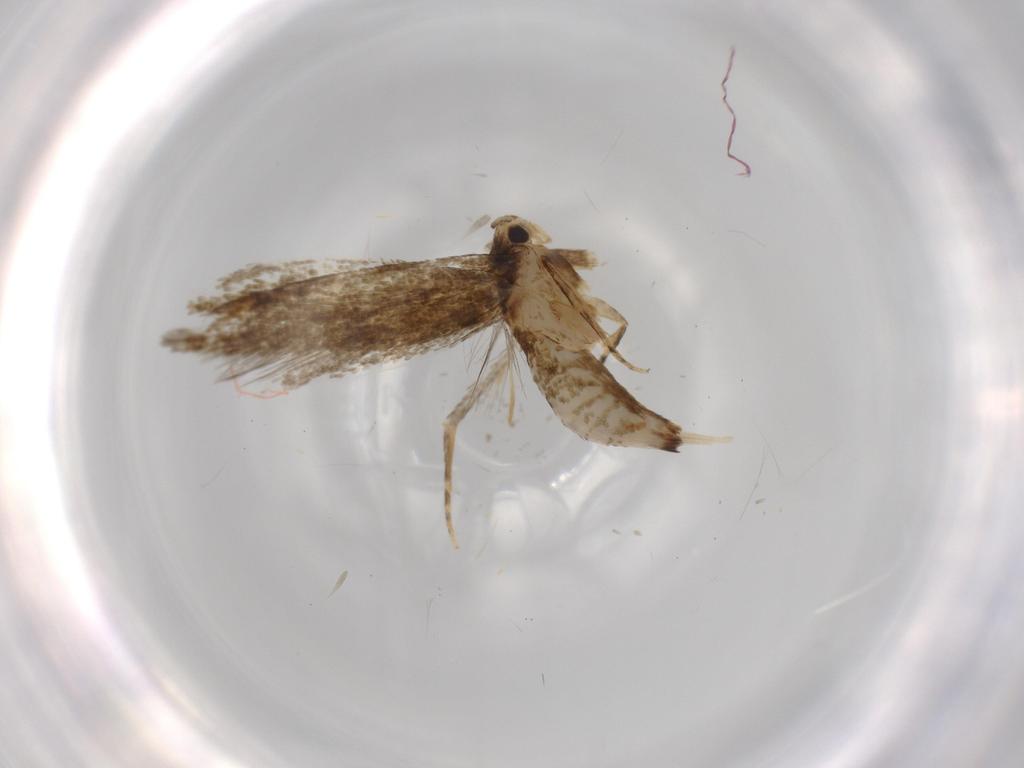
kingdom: Animalia
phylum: Arthropoda
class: Insecta
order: Lepidoptera
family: Tineidae
